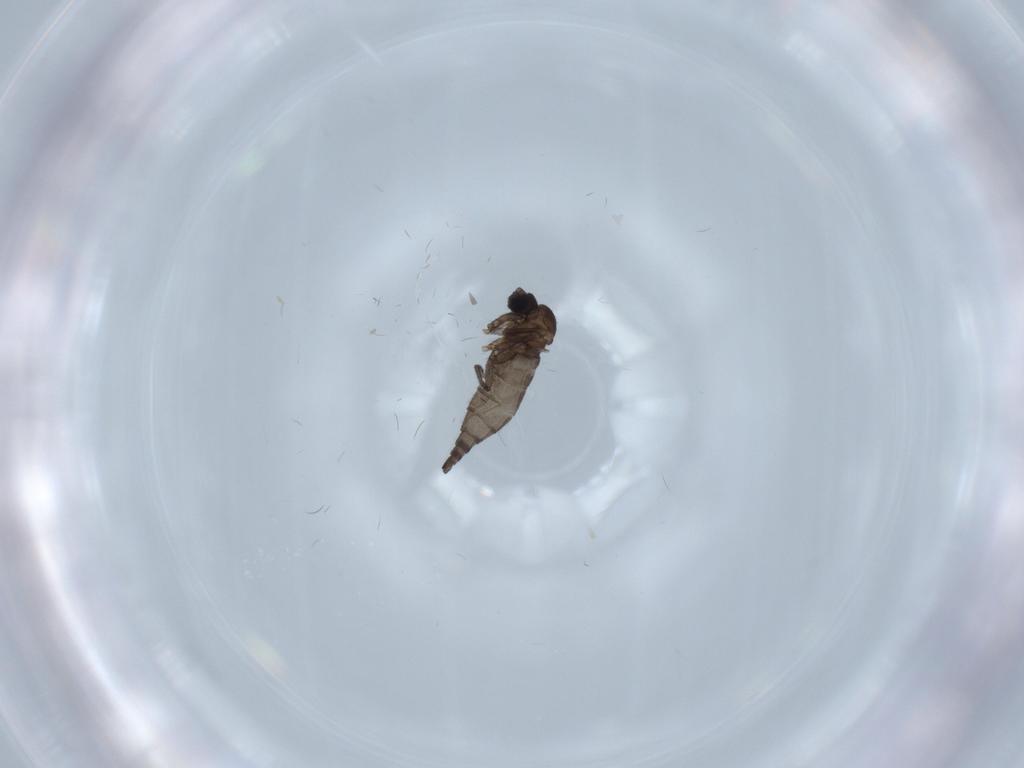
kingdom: Animalia
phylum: Arthropoda
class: Insecta
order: Diptera
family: Sciaridae
